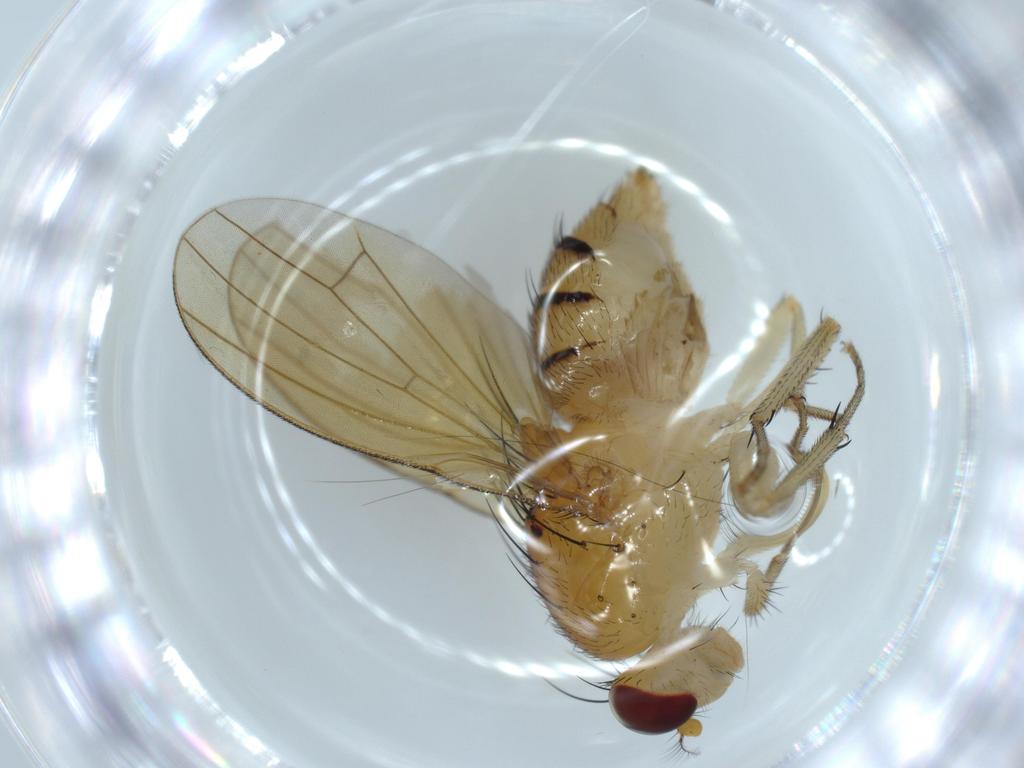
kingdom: Animalia
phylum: Arthropoda
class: Insecta
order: Diptera
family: Lauxaniidae
